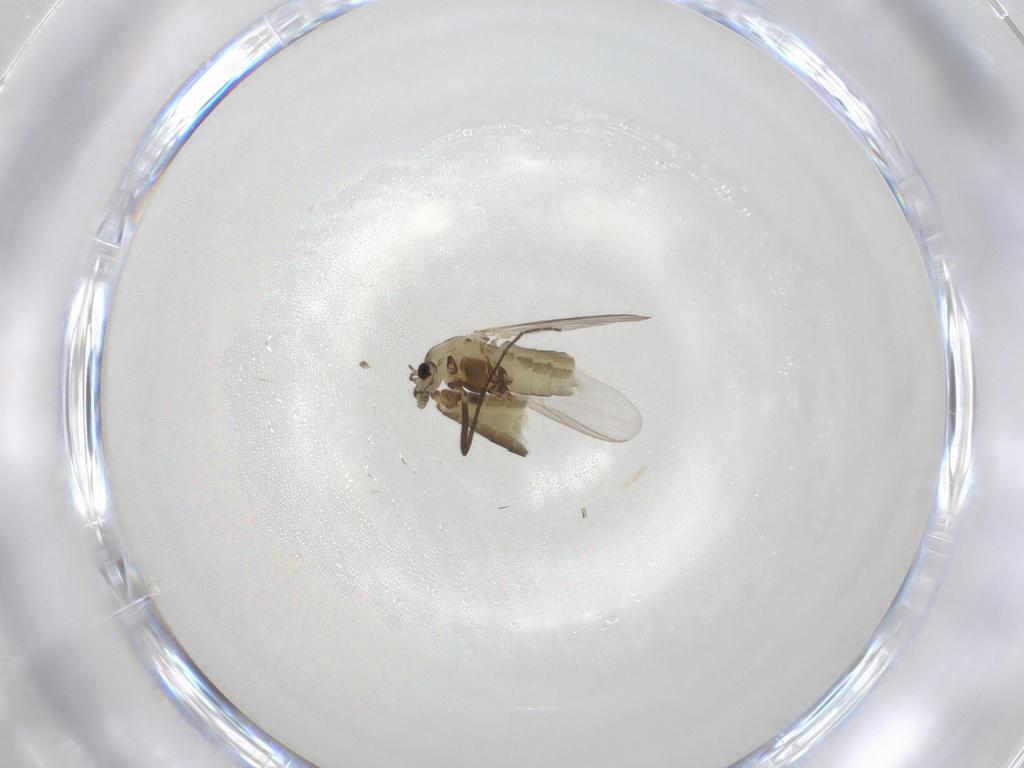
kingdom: Animalia
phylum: Arthropoda
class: Insecta
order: Diptera
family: Chironomidae
